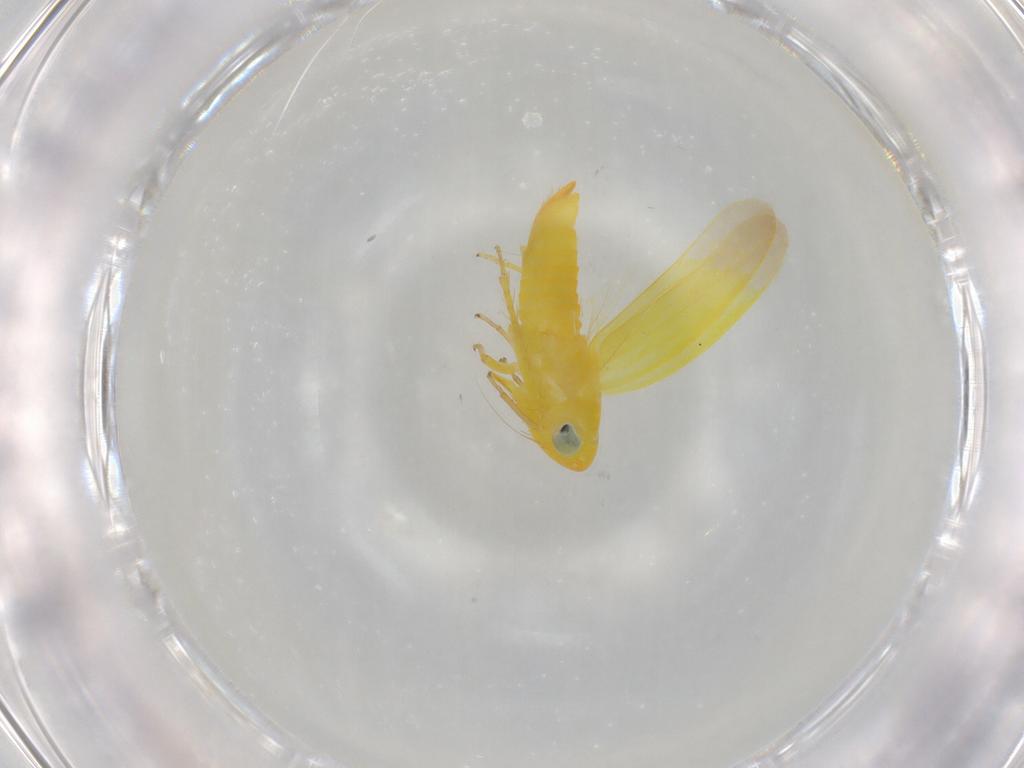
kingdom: Animalia
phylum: Arthropoda
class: Insecta
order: Hemiptera
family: Cicadellidae
